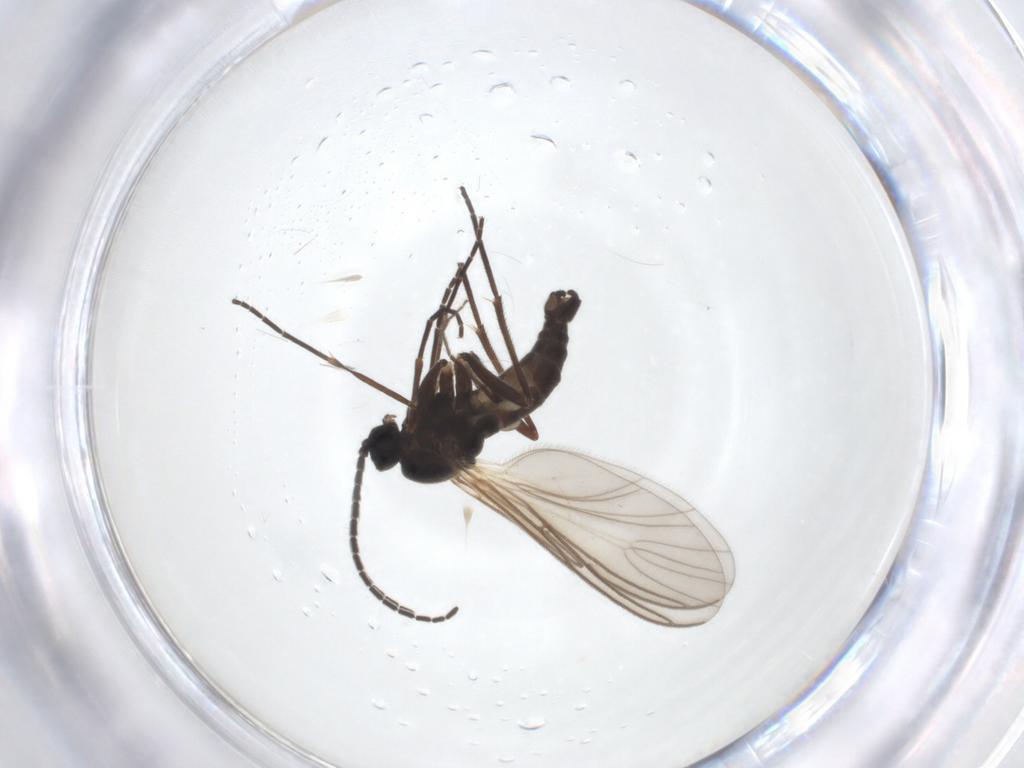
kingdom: Animalia
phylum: Arthropoda
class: Insecta
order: Diptera
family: Sciaridae
